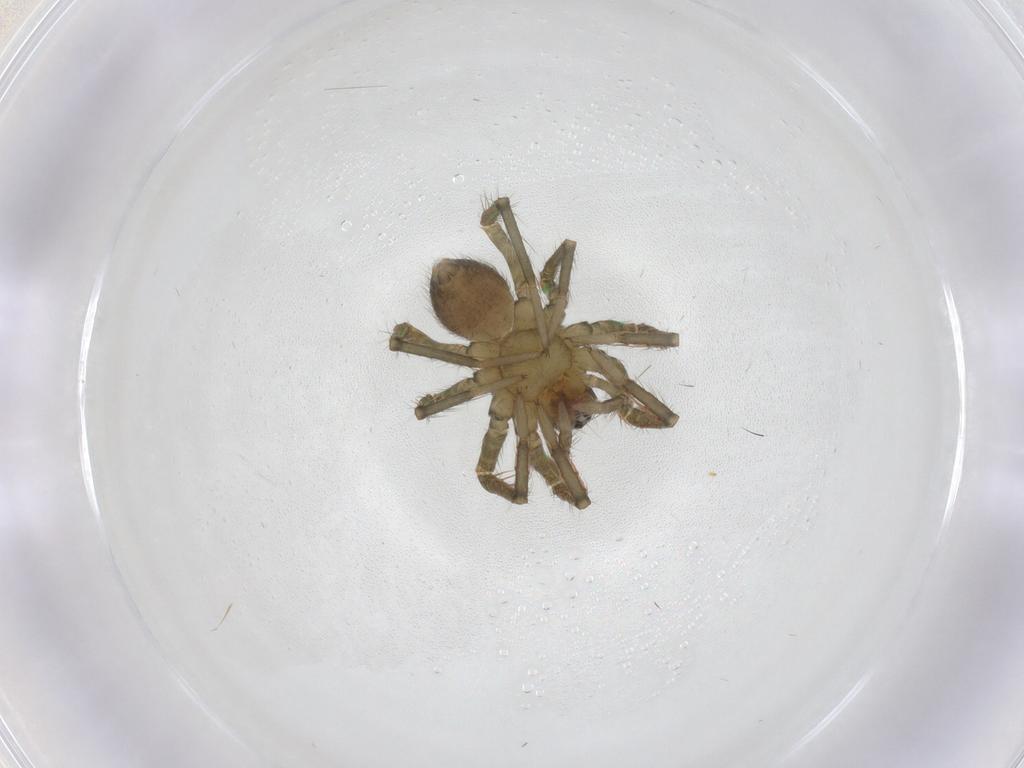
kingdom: Animalia
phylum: Arthropoda
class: Arachnida
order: Araneae
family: Ctenidae
